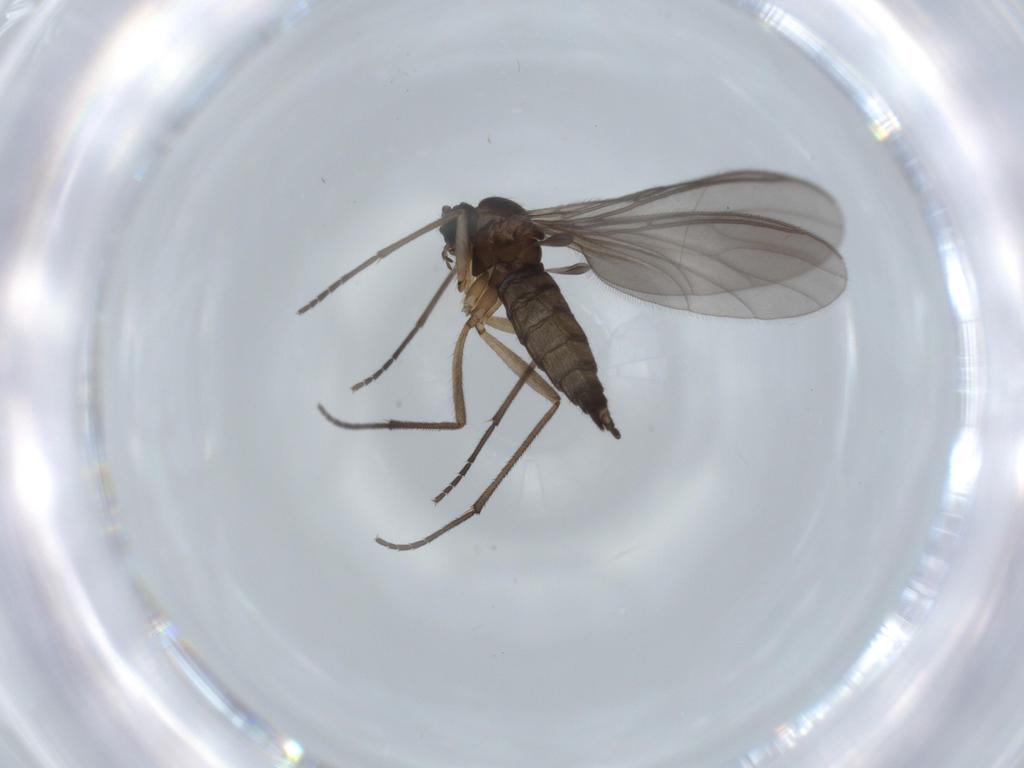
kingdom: Animalia
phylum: Arthropoda
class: Insecta
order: Diptera
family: Sciaridae
